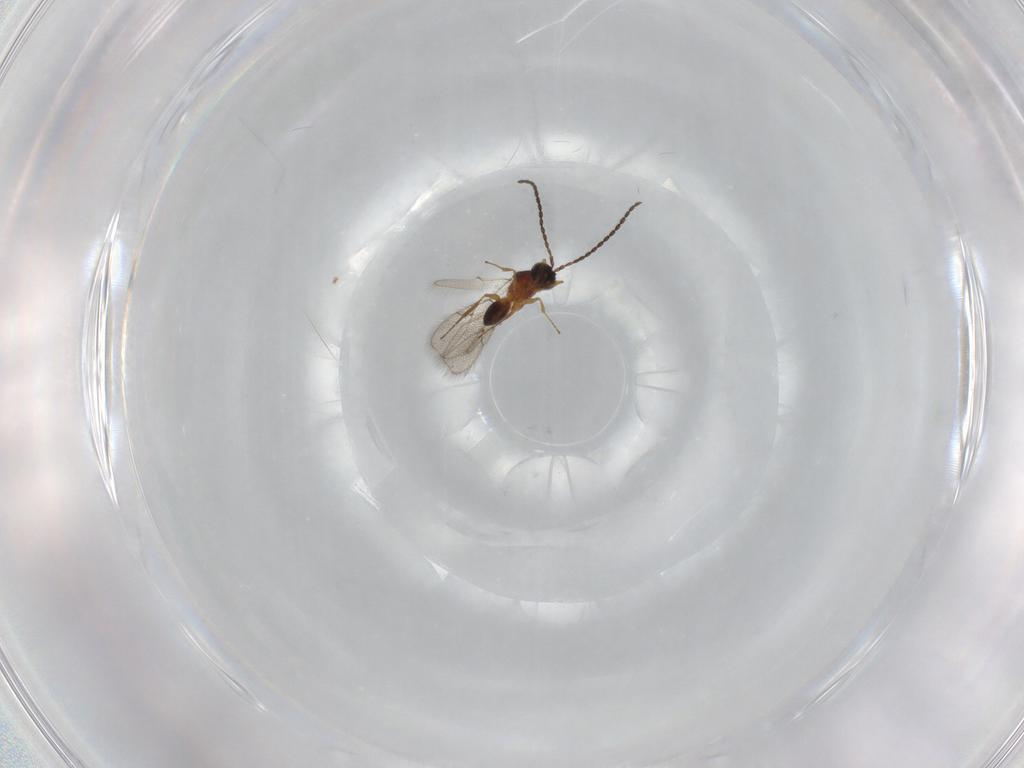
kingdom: Animalia
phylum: Arthropoda
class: Insecta
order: Hymenoptera
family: Figitidae
